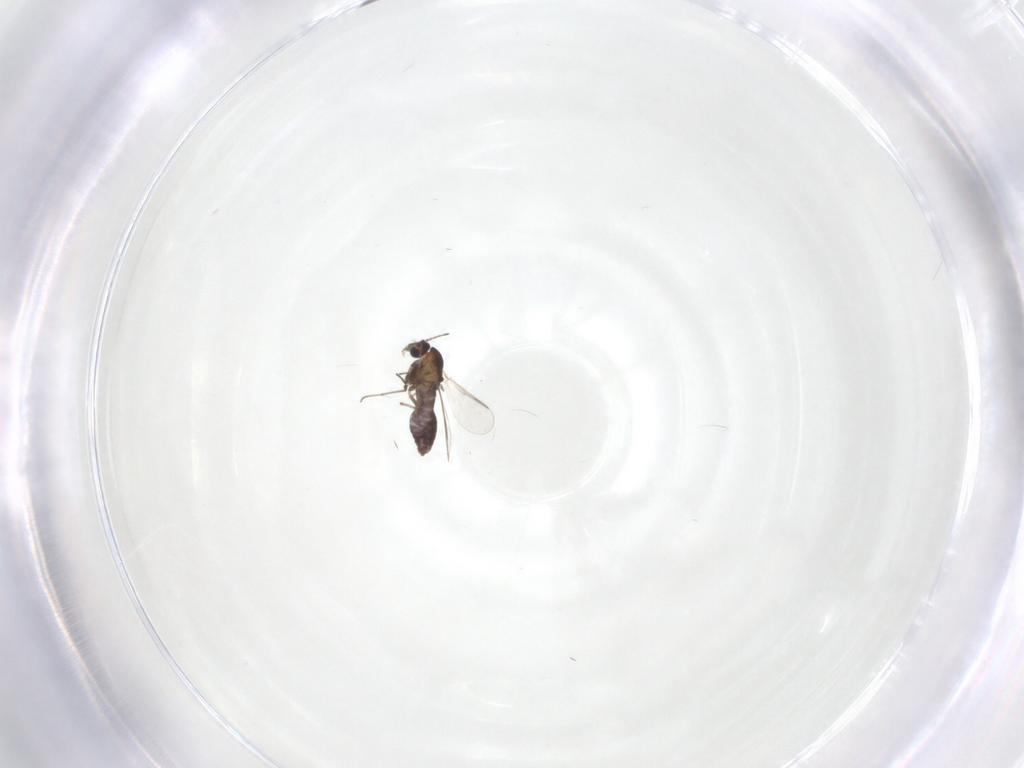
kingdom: Animalia
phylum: Arthropoda
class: Insecta
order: Diptera
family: Chironomidae
